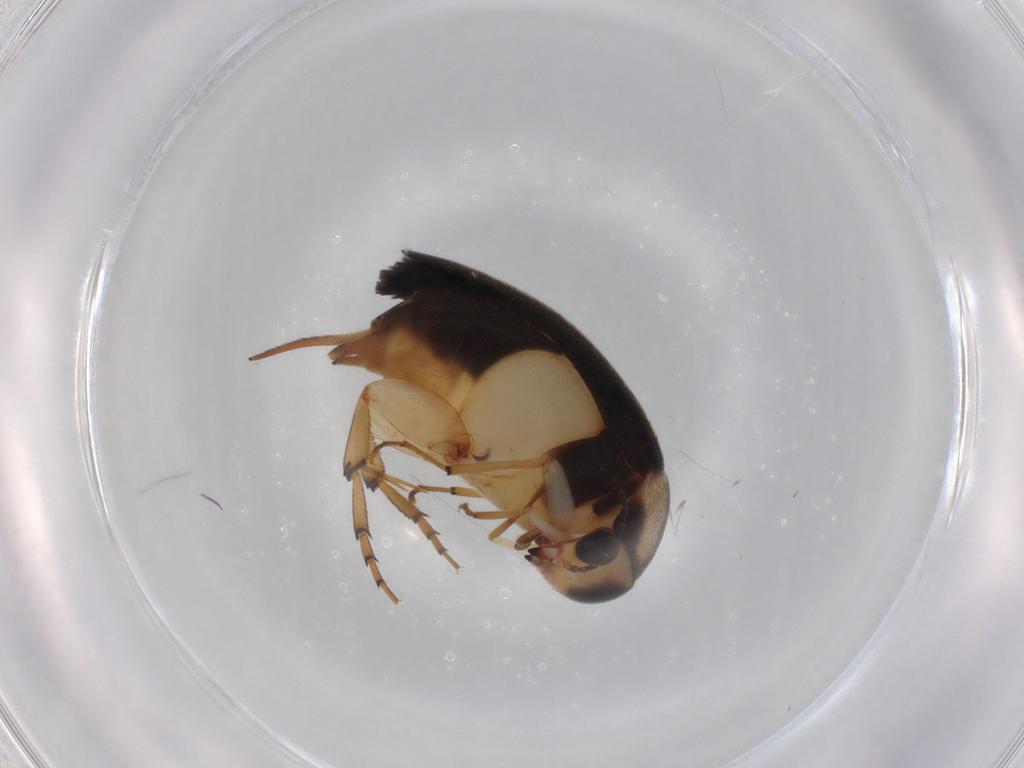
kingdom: Animalia
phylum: Arthropoda
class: Insecta
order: Coleoptera
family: Mordellidae
